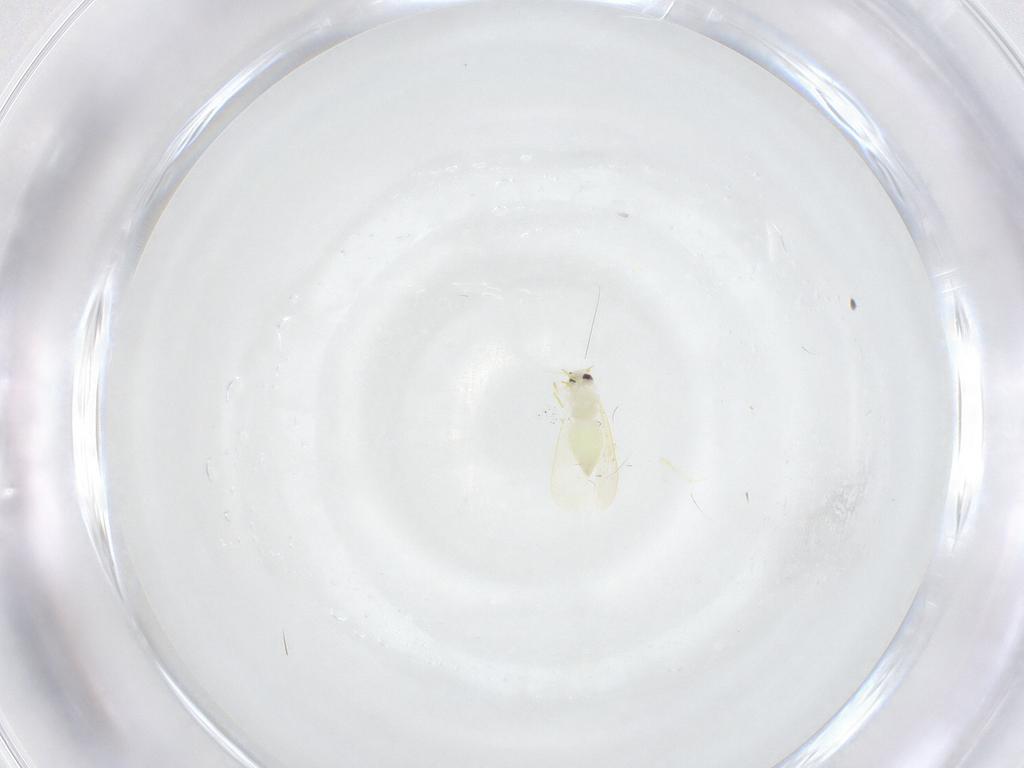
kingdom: Animalia
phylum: Arthropoda
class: Insecta
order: Hemiptera
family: Aleyrodidae
